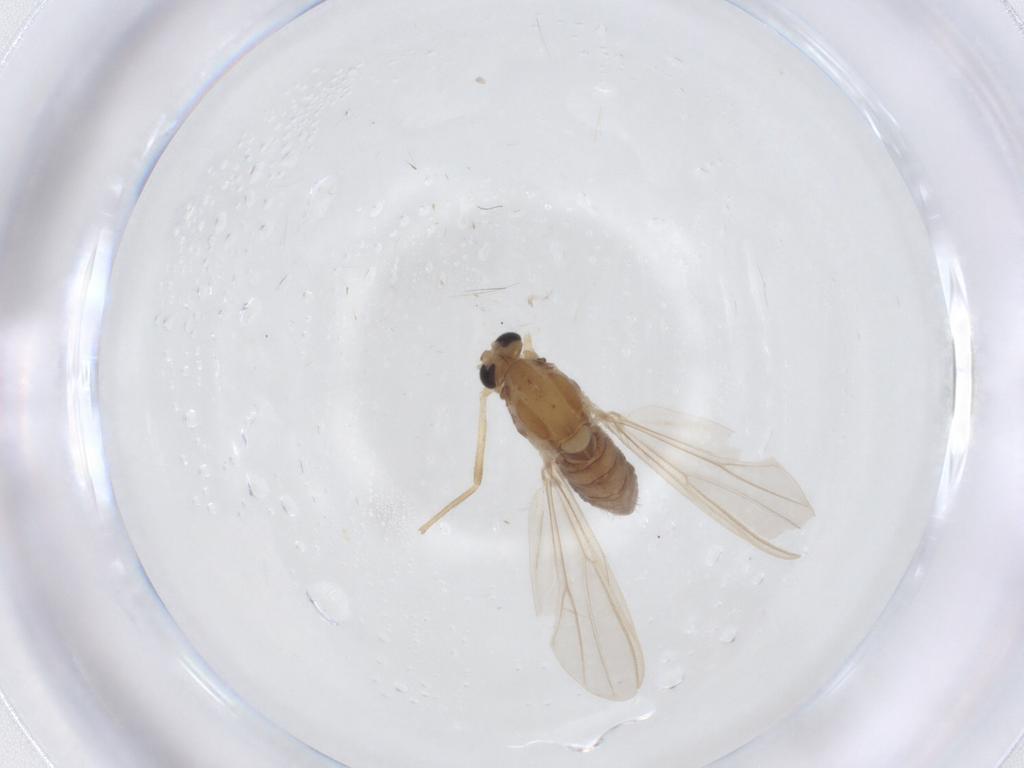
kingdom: Animalia
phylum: Arthropoda
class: Insecta
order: Diptera
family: Chironomidae
